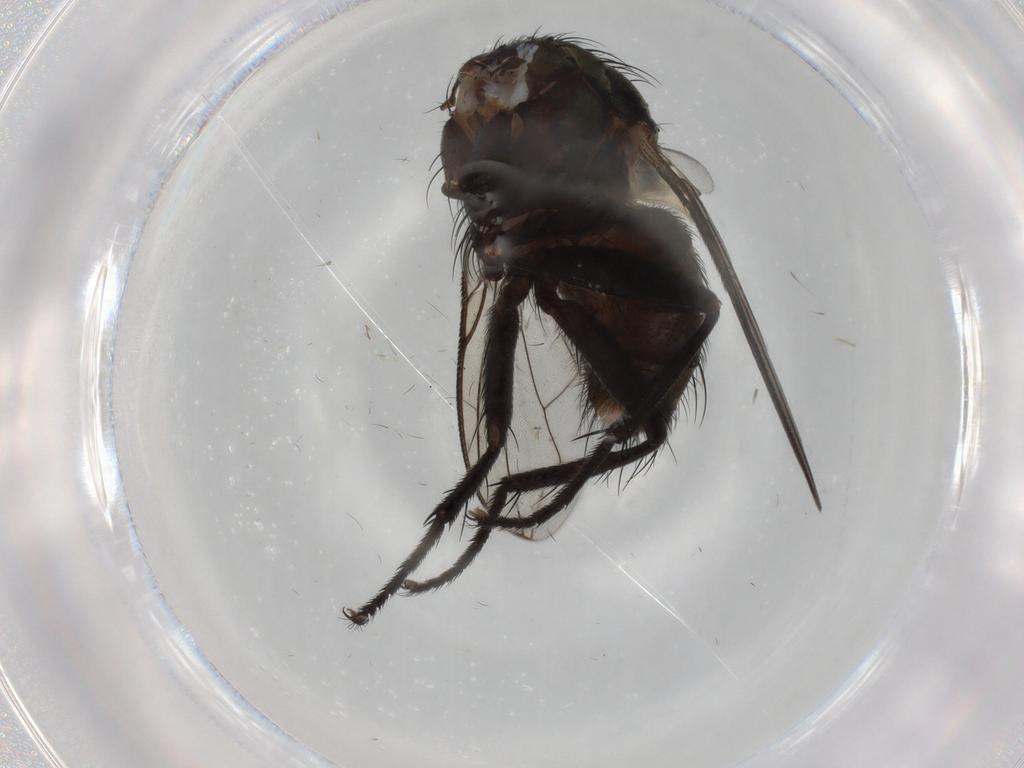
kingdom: Animalia
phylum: Arthropoda
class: Insecta
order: Diptera
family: Sarcophagidae
